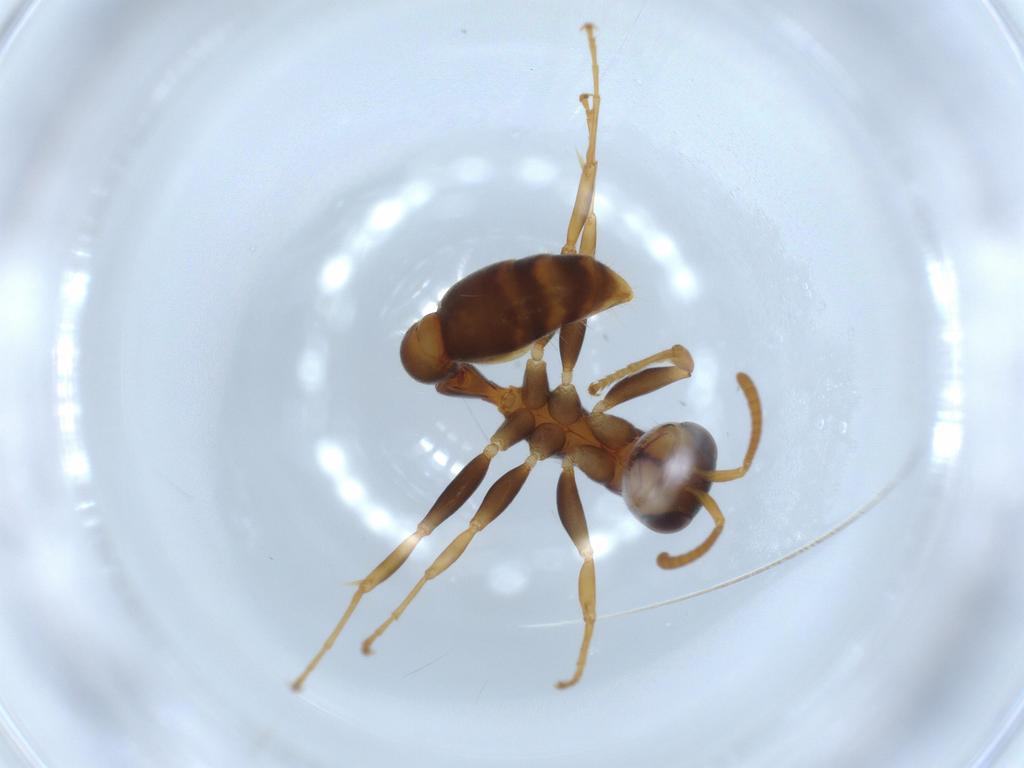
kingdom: Animalia
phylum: Arthropoda
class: Insecta
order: Hymenoptera
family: Formicidae
